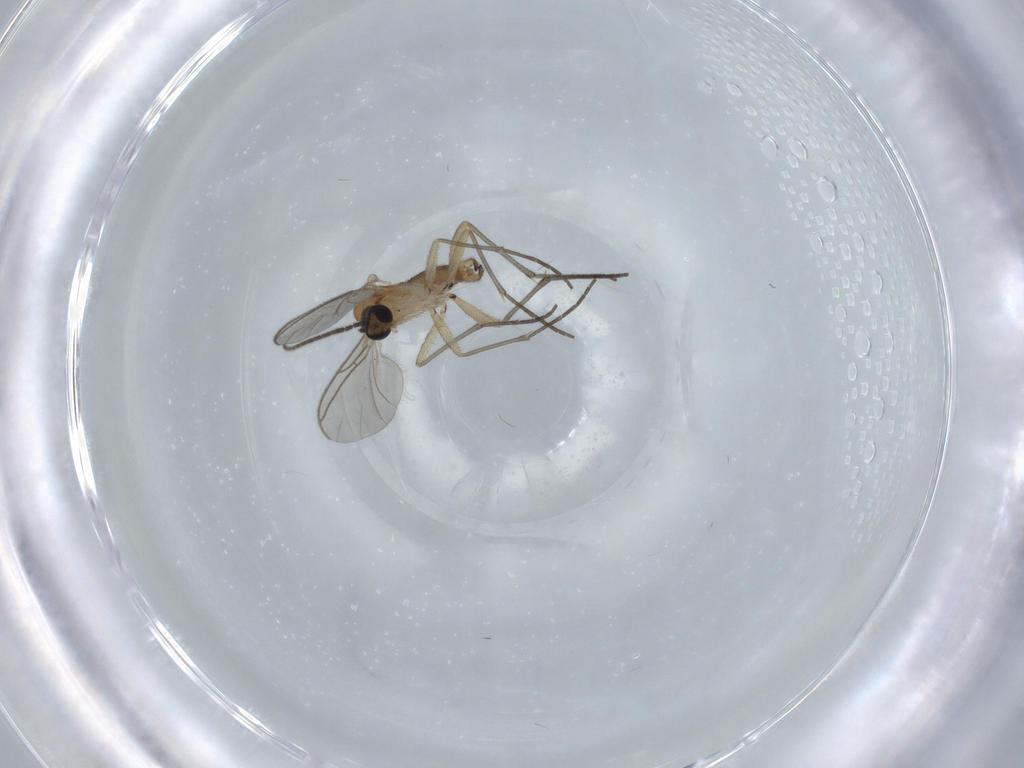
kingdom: Animalia
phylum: Arthropoda
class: Insecta
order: Diptera
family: Sciaridae
